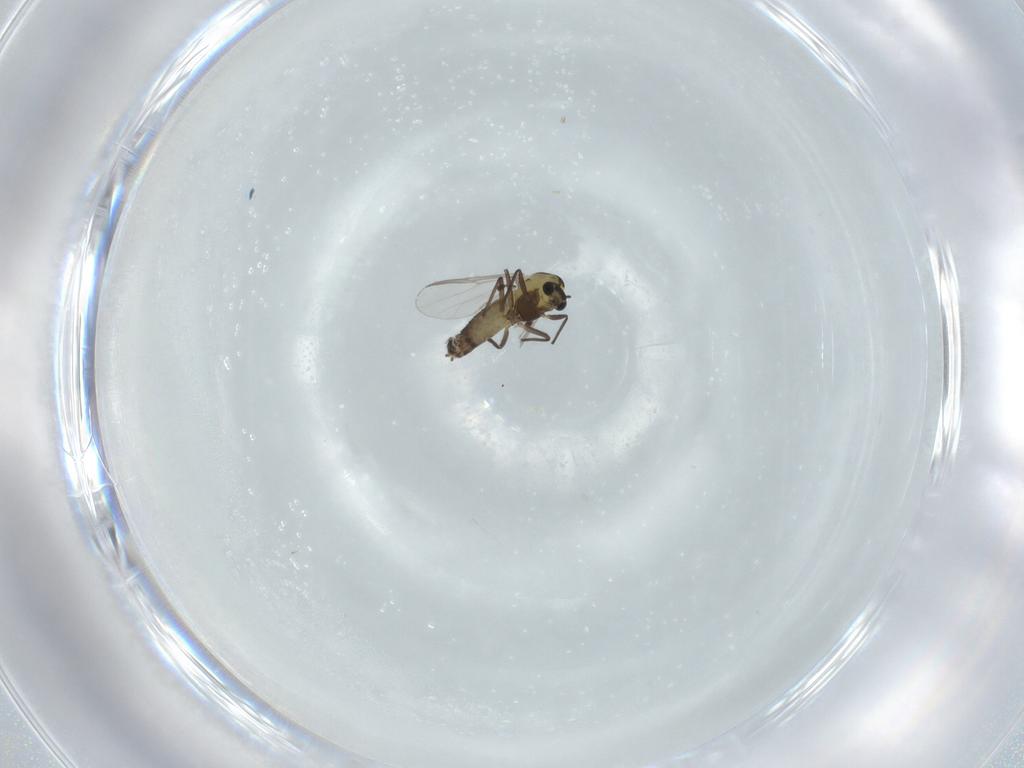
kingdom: Animalia
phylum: Arthropoda
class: Insecta
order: Diptera
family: Chironomidae
